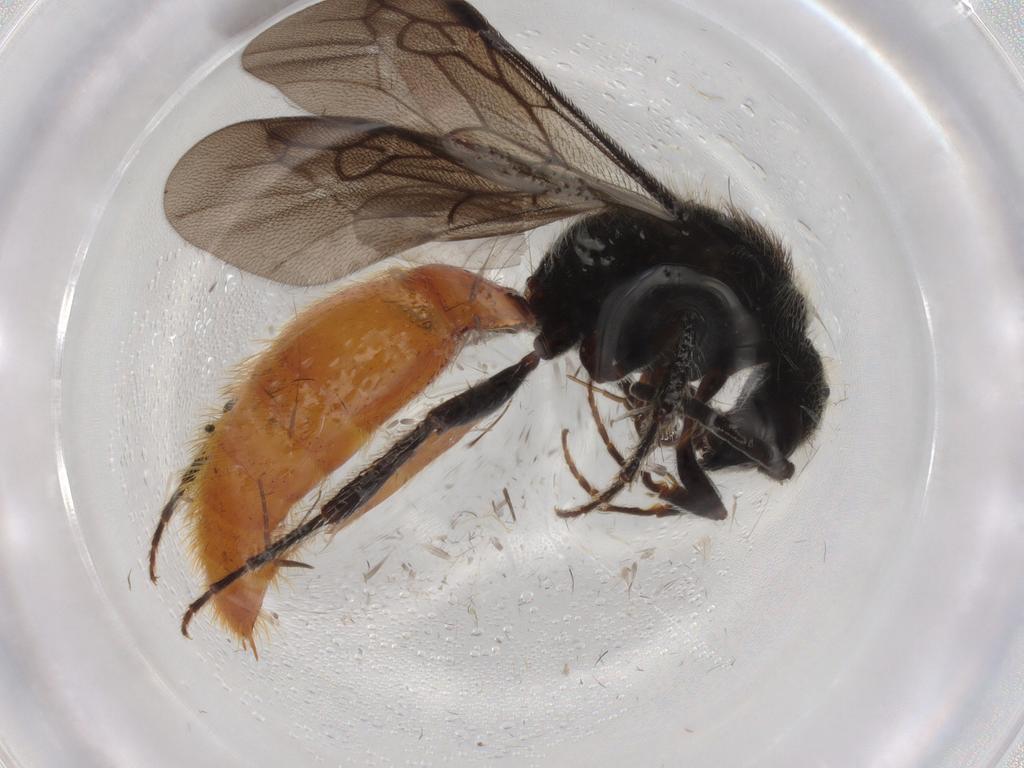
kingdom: Animalia
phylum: Arthropoda
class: Insecta
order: Hymenoptera
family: Mutillidae
